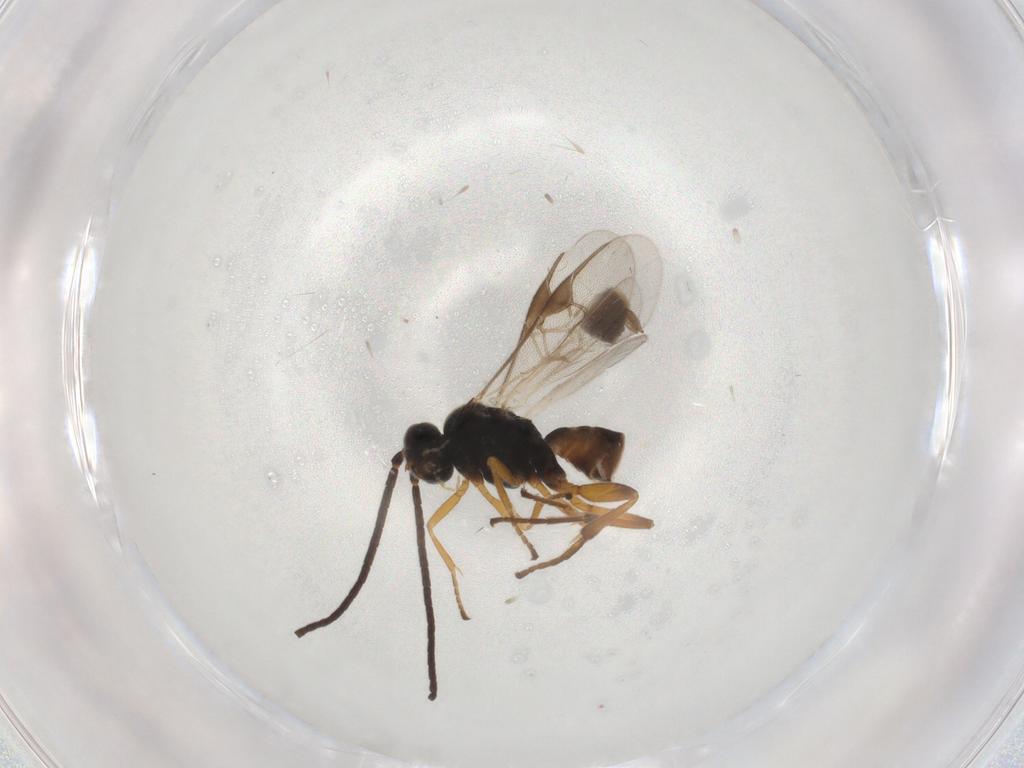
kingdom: Animalia
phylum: Arthropoda
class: Insecta
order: Hymenoptera
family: Braconidae
